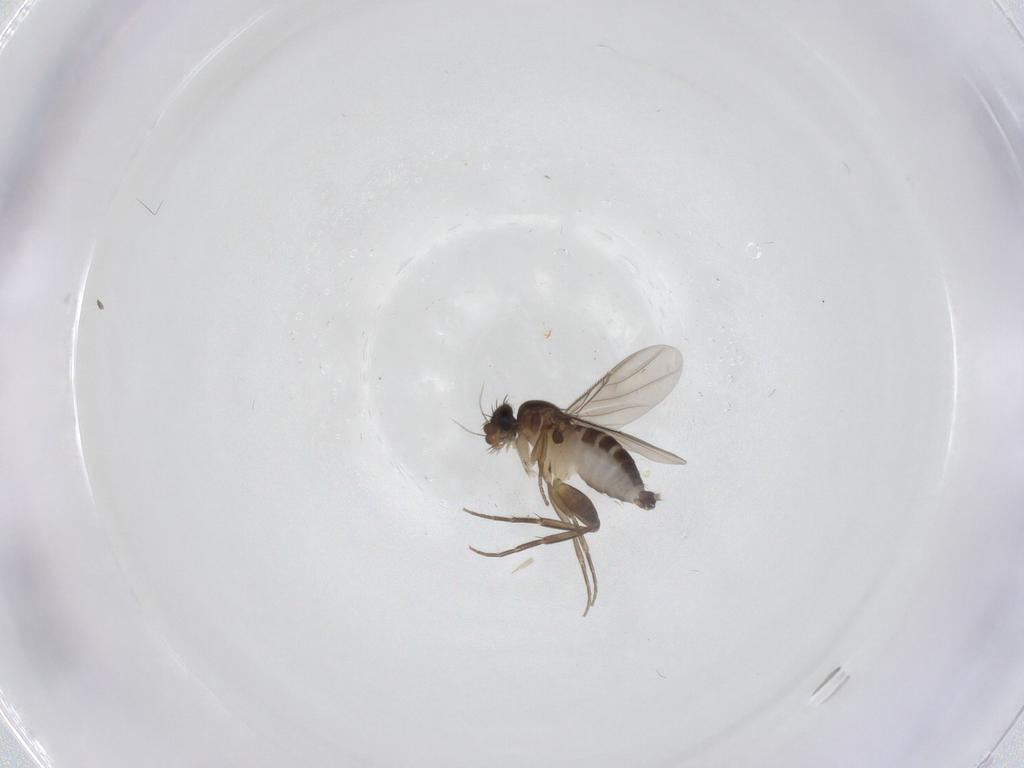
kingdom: Animalia
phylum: Arthropoda
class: Insecta
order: Diptera
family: Phoridae
